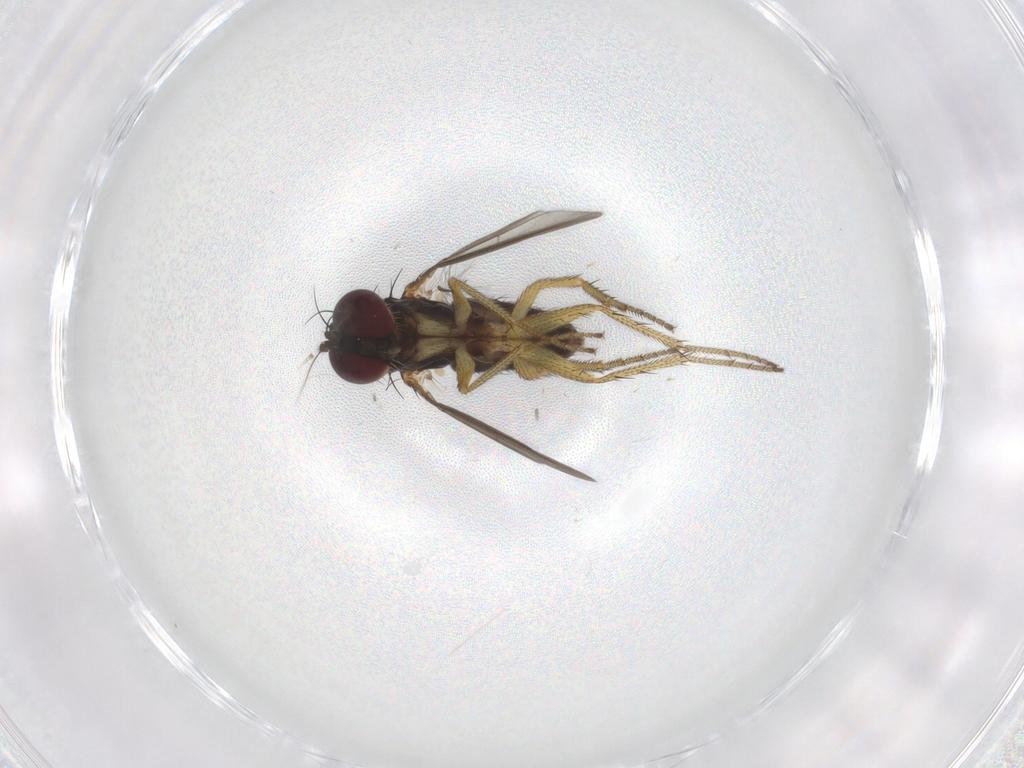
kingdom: Animalia
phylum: Arthropoda
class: Insecta
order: Diptera
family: Dolichopodidae
